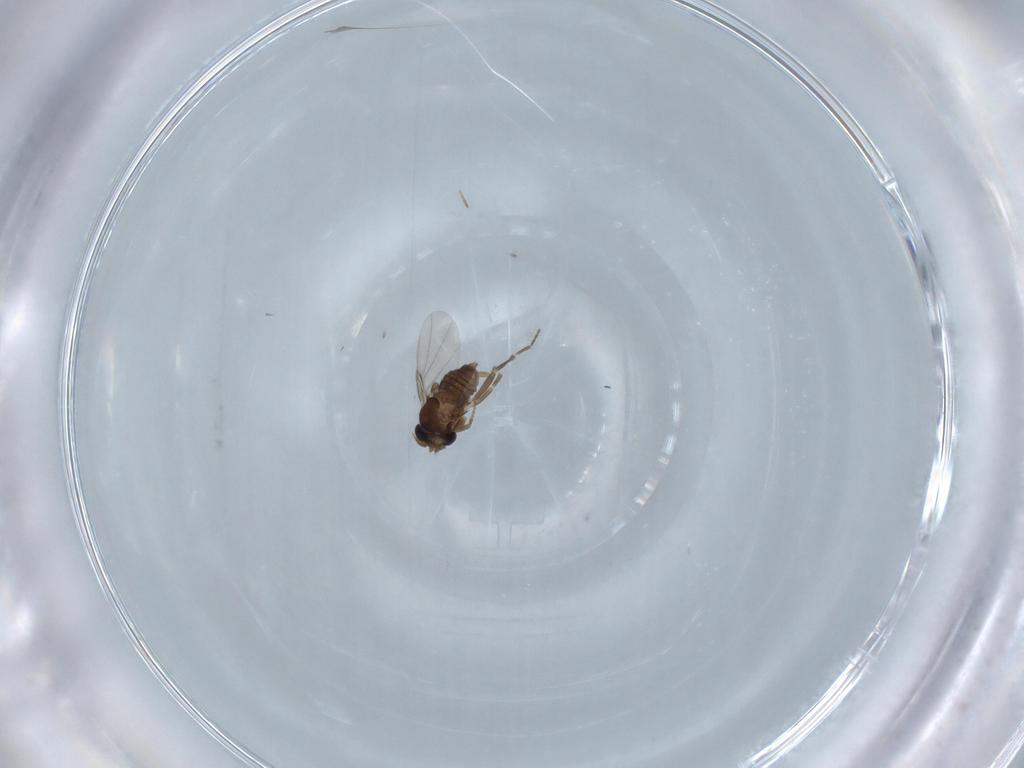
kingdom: Animalia
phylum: Arthropoda
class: Insecta
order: Diptera
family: Psychodidae
